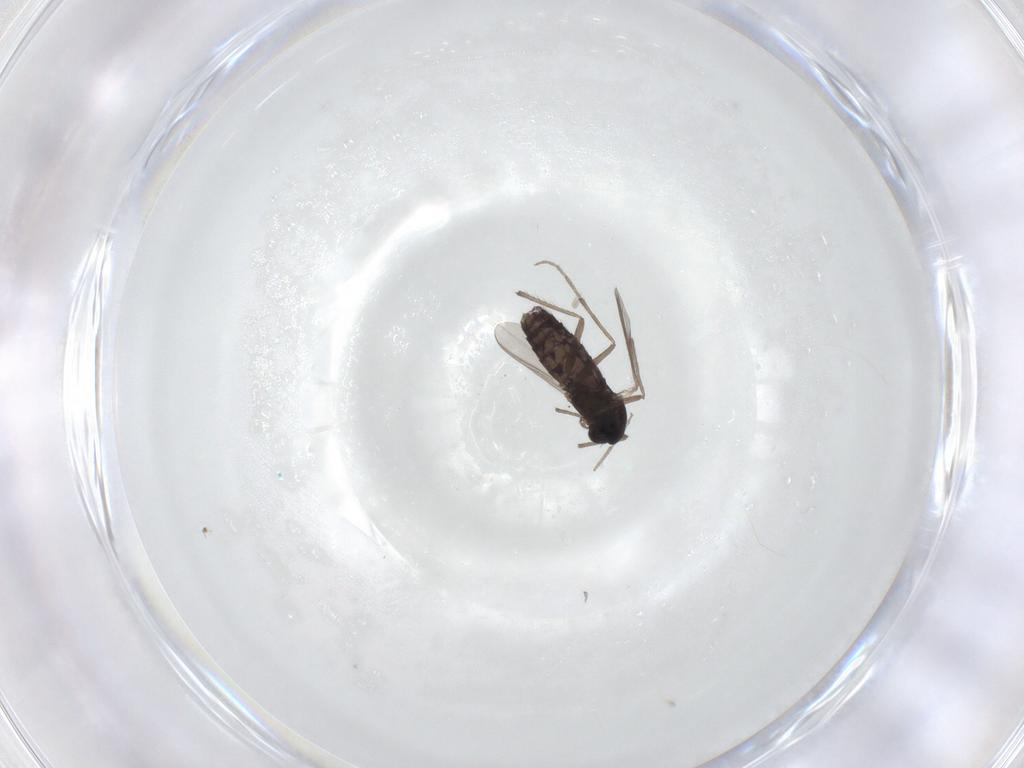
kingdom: Animalia
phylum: Arthropoda
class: Insecta
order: Diptera
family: Chironomidae
